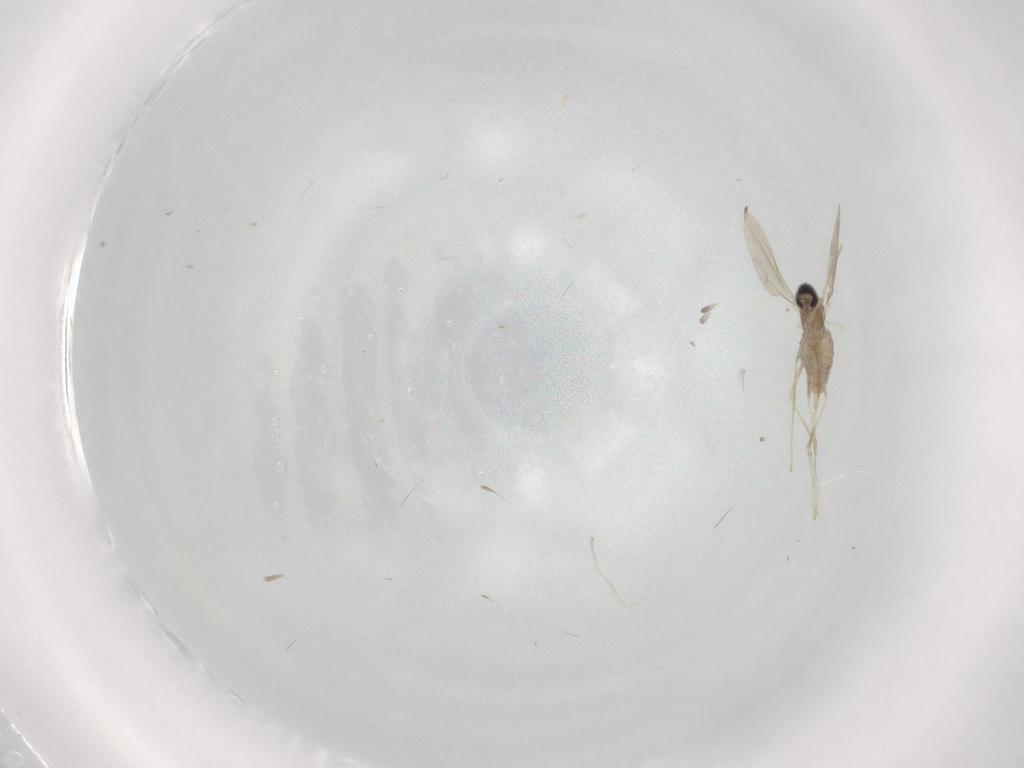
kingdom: Animalia
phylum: Arthropoda
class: Insecta
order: Diptera
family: Cecidomyiidae
